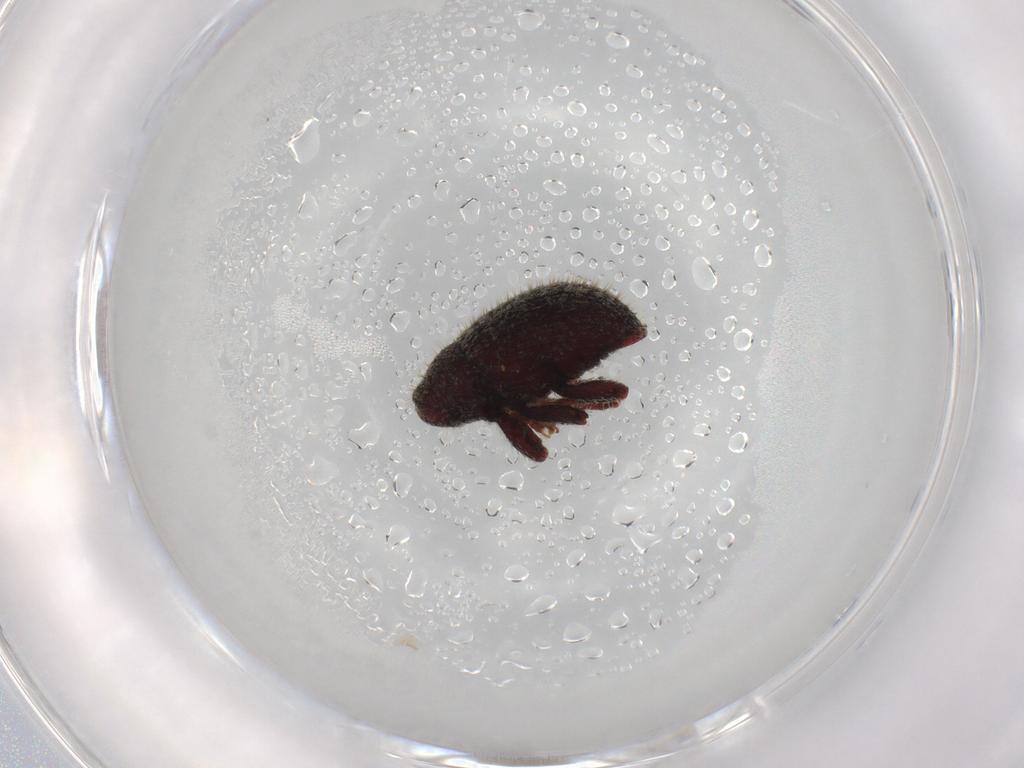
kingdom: Animalia
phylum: Arthropoda
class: Insecta
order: Coleoptera
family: Curculionidae
